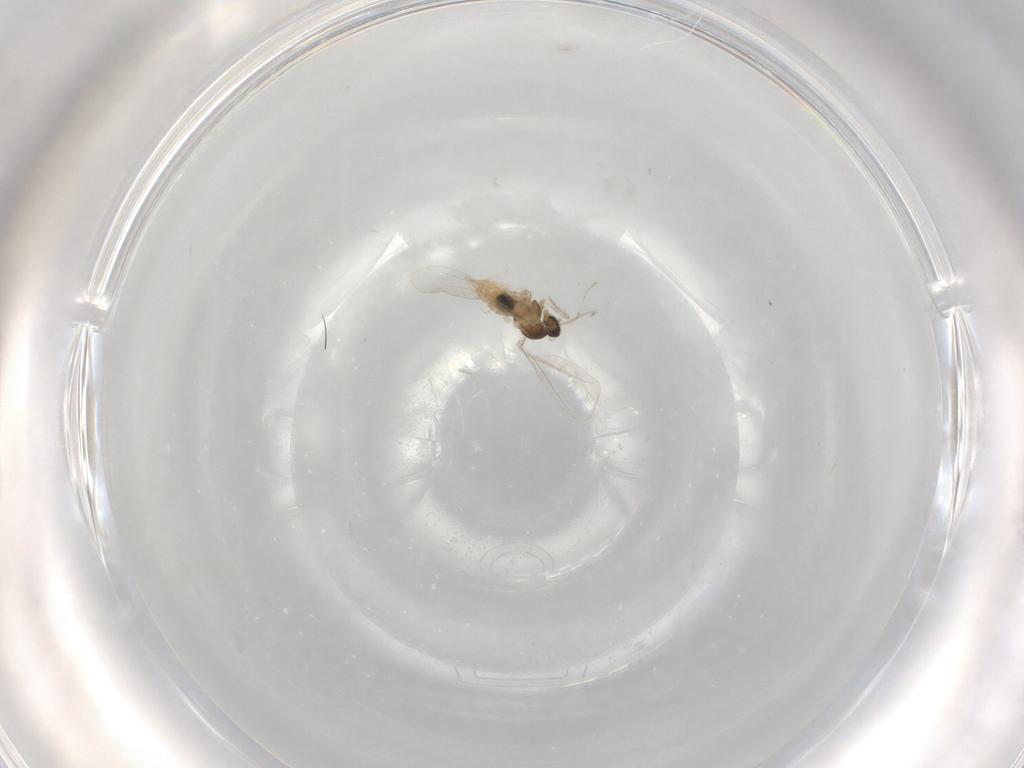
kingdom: Animalia
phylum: Arthropoda
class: Insecta
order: Diptera
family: Cecidomyiidae
